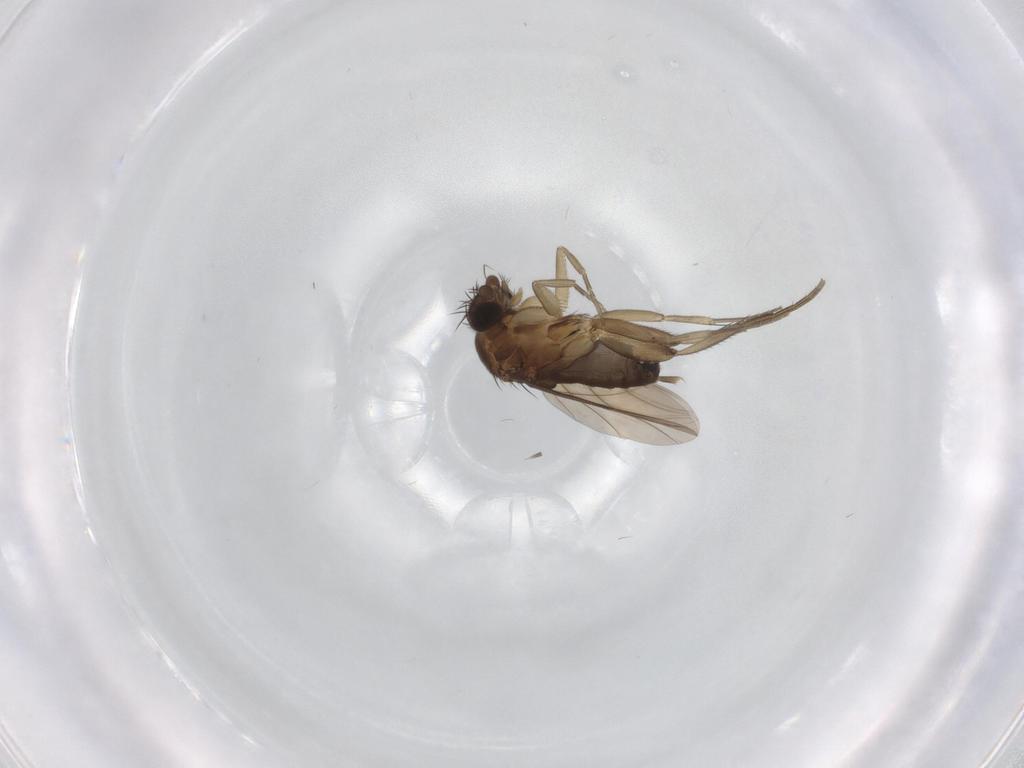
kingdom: Animalia
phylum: Arthropoda
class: Insecta
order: Diptera
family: Phoridae
